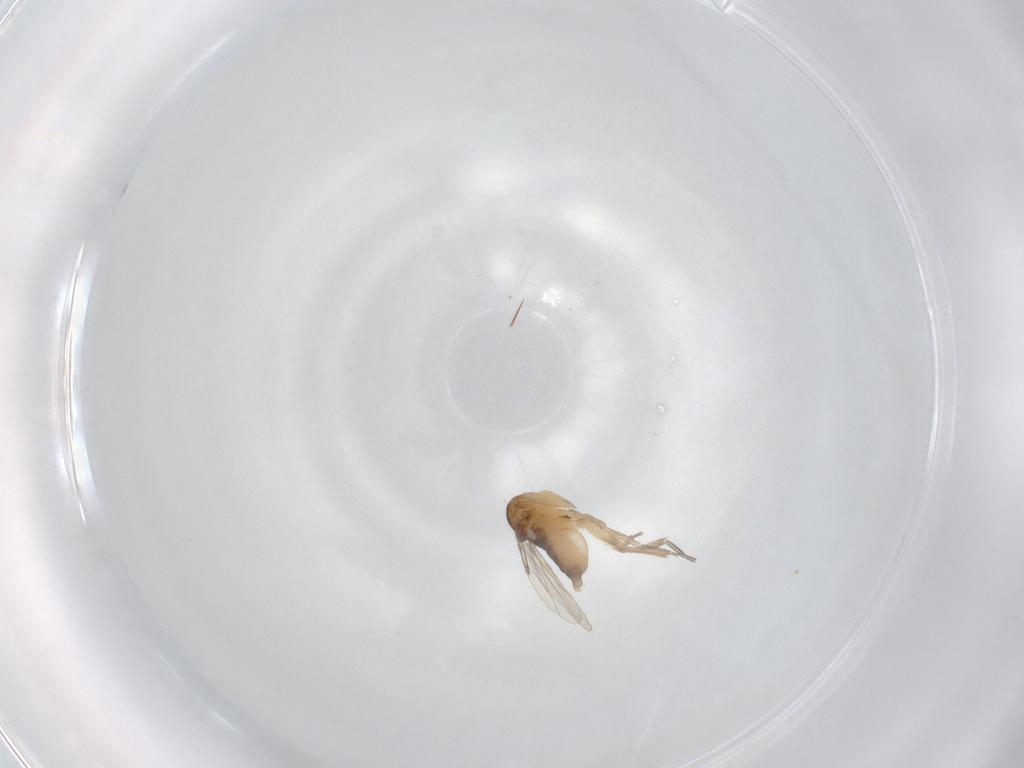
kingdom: Animalia
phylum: Arthropoda
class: Insecta
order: Diptera
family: Phoridae
